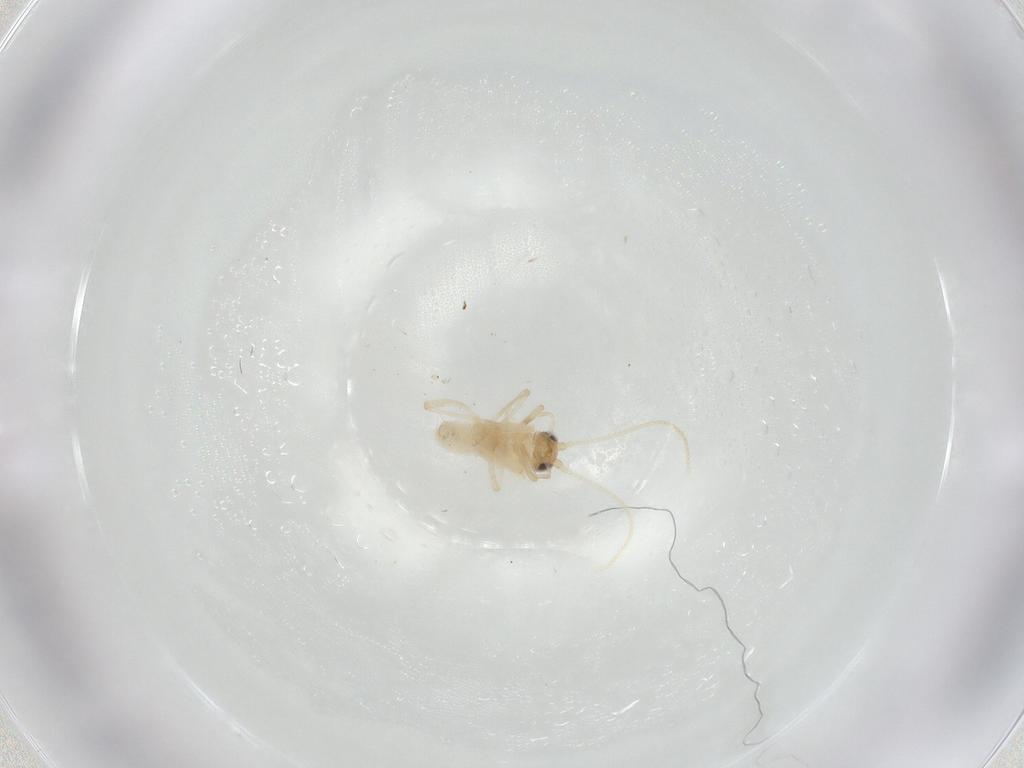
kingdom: Animalia
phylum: Arthropoda
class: Insecta
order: Neuroptera
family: Coniopterygidae
